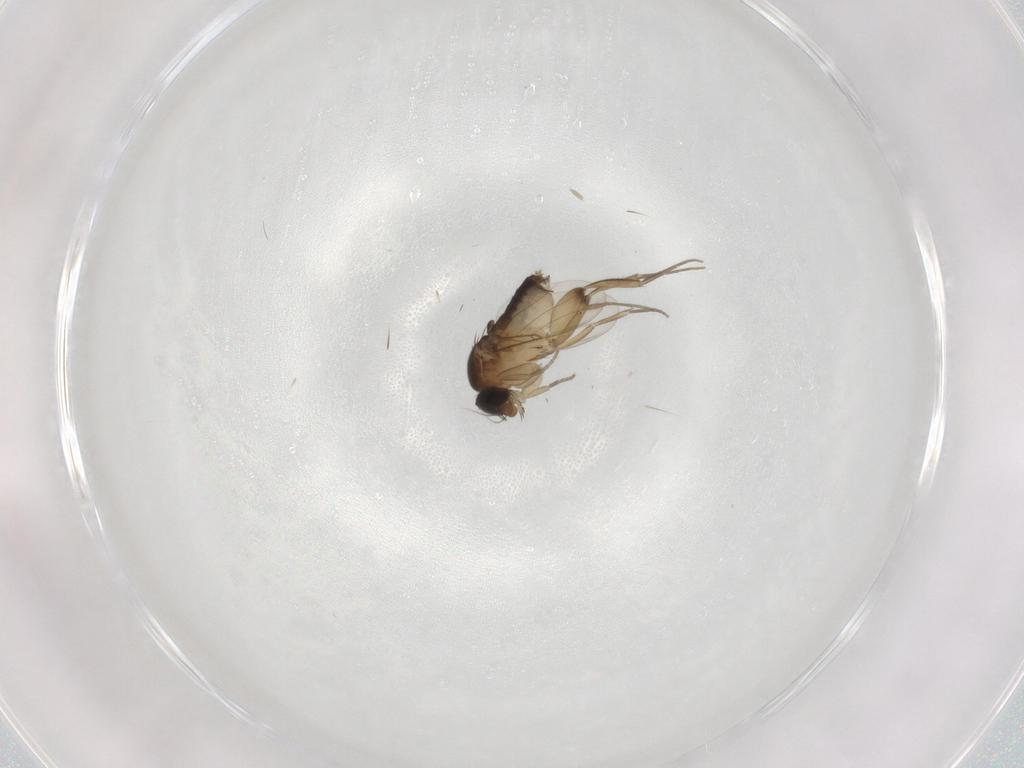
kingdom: Animalia
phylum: Arthropoda
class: Insecta
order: Diptera
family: Phoridae
